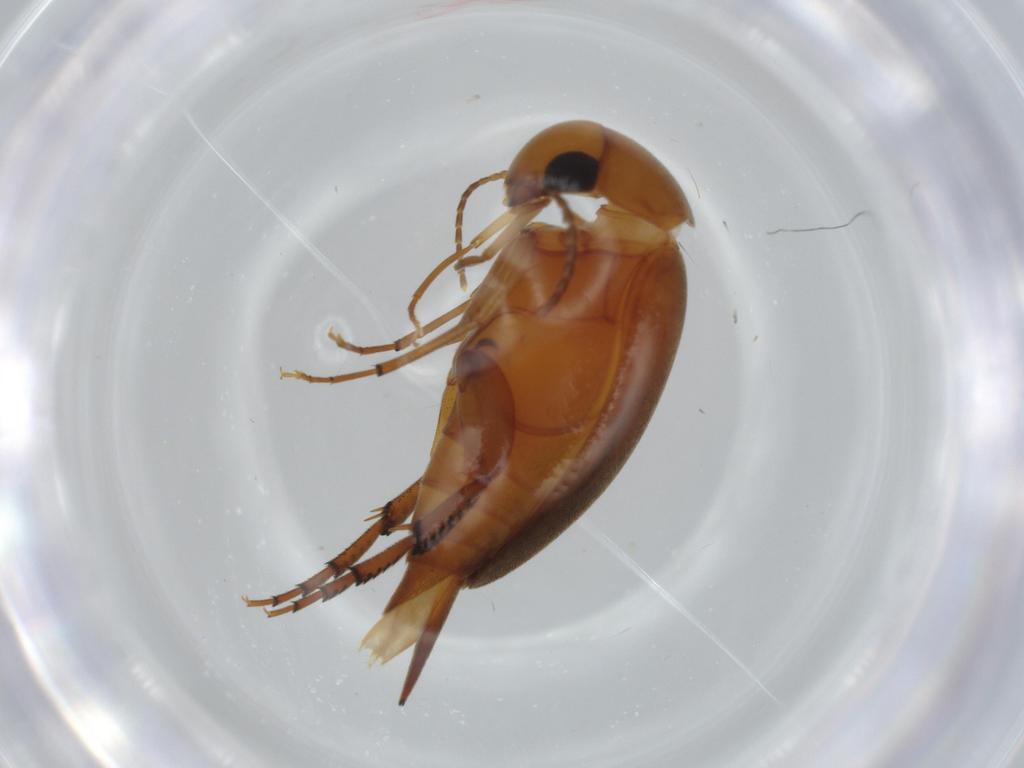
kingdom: Animalia
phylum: Arthropoda
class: Insecta
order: Coleoptera
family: Mordellidae
